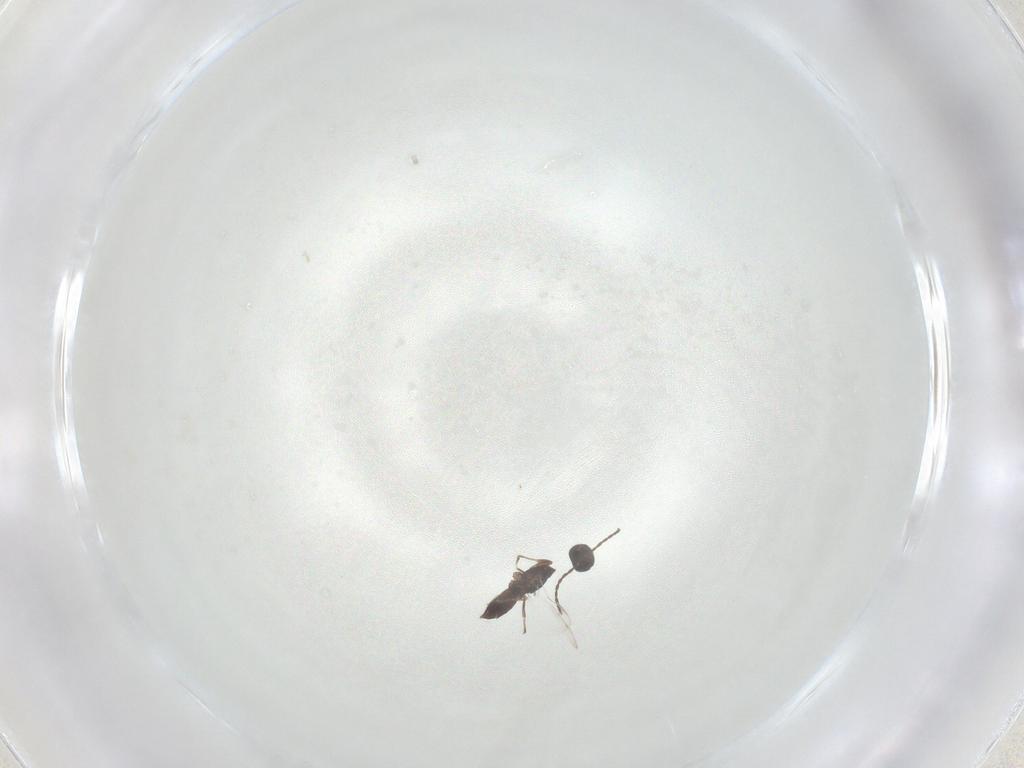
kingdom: Animalia
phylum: Arthropoda
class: Insecta
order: Hymenoptera
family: Platygastridae
